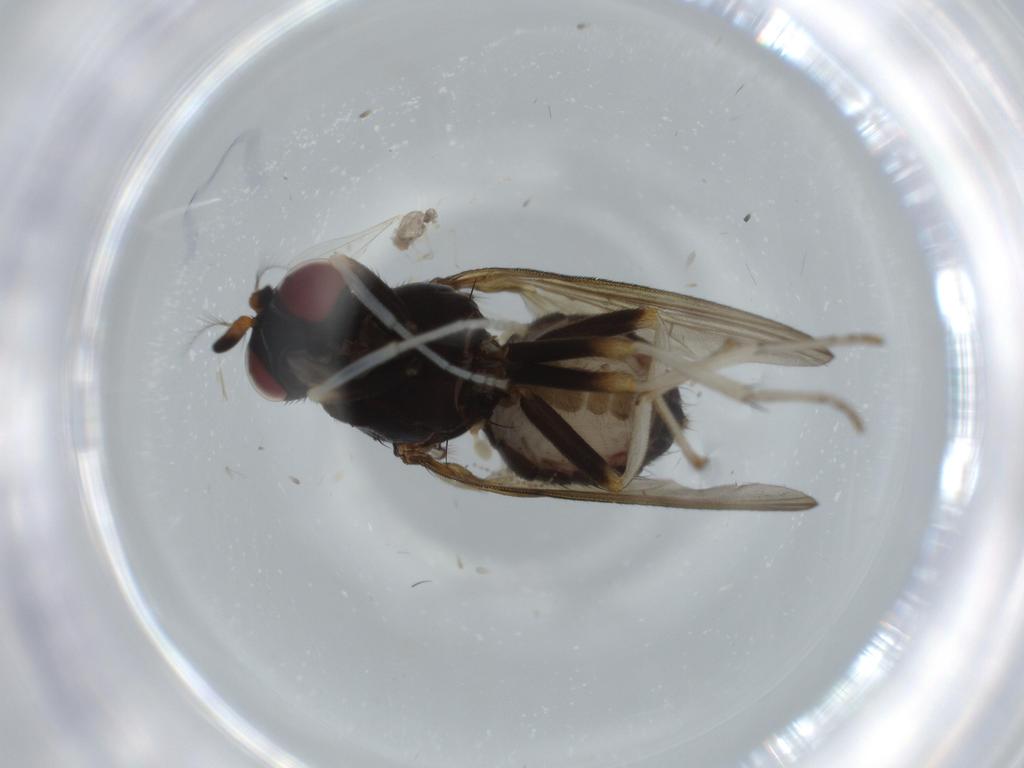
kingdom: Animalia
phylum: Arthropoda
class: Insecta
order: Diptera
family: Lauxaniidae
